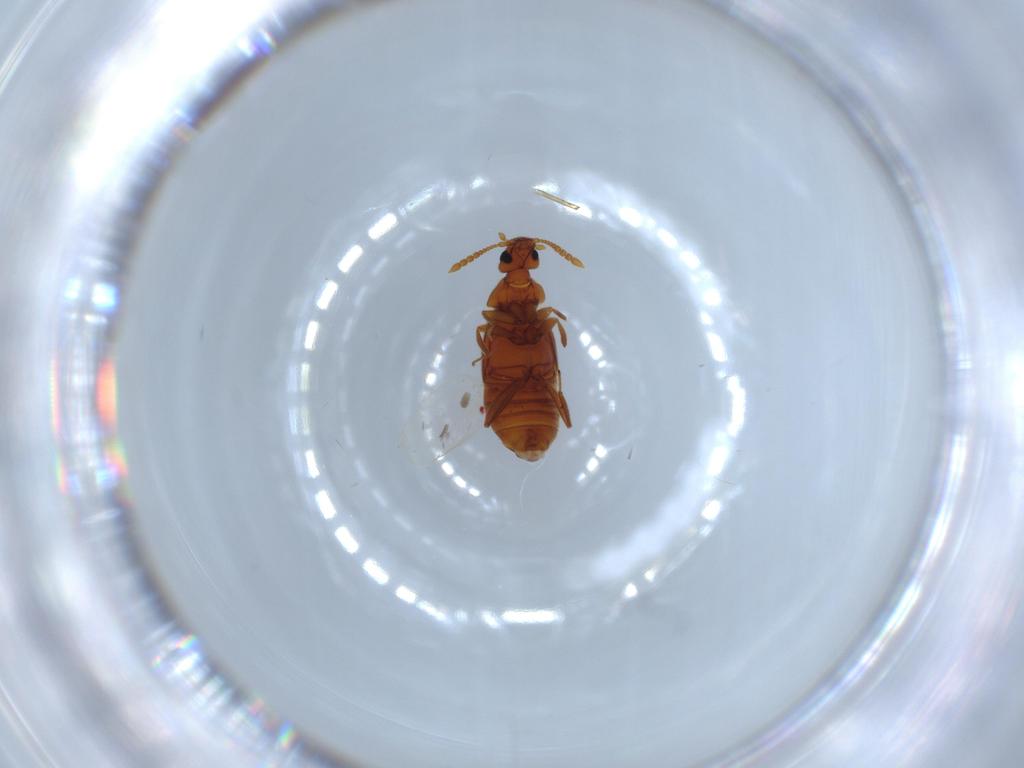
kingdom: Animalia
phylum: Arthropoda
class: Insecta
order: Coleoptera
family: Staphylinidae
